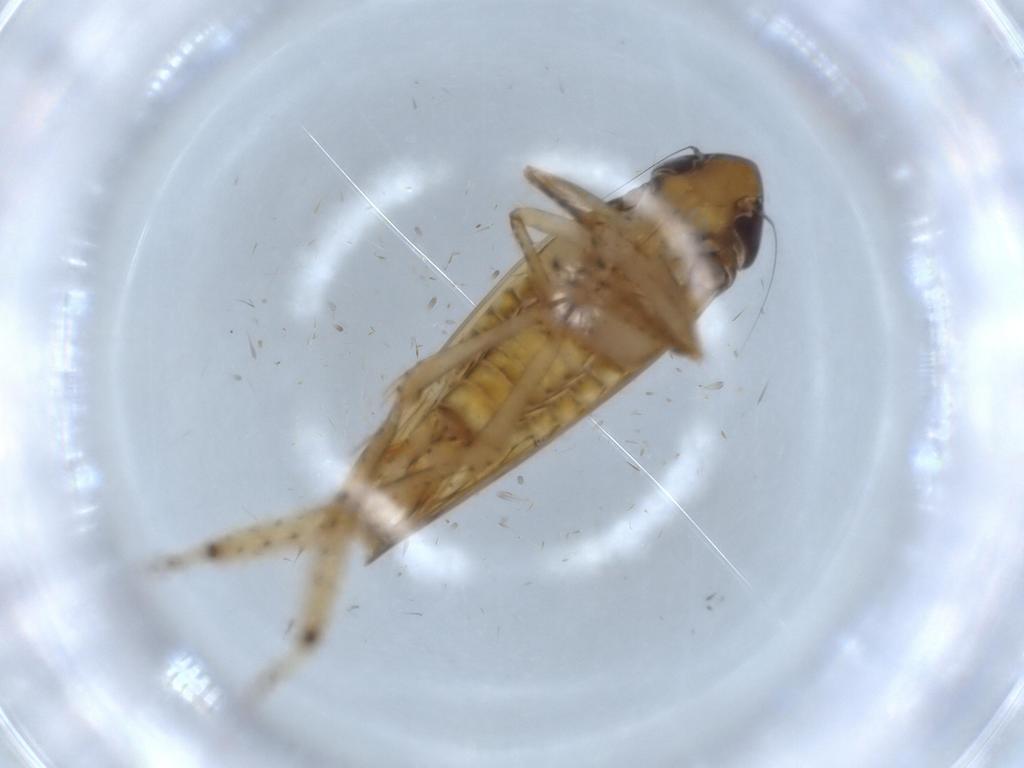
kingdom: Animalia
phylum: Arthropoda
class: Insecta
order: Hemiptera
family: Cicadellidae
